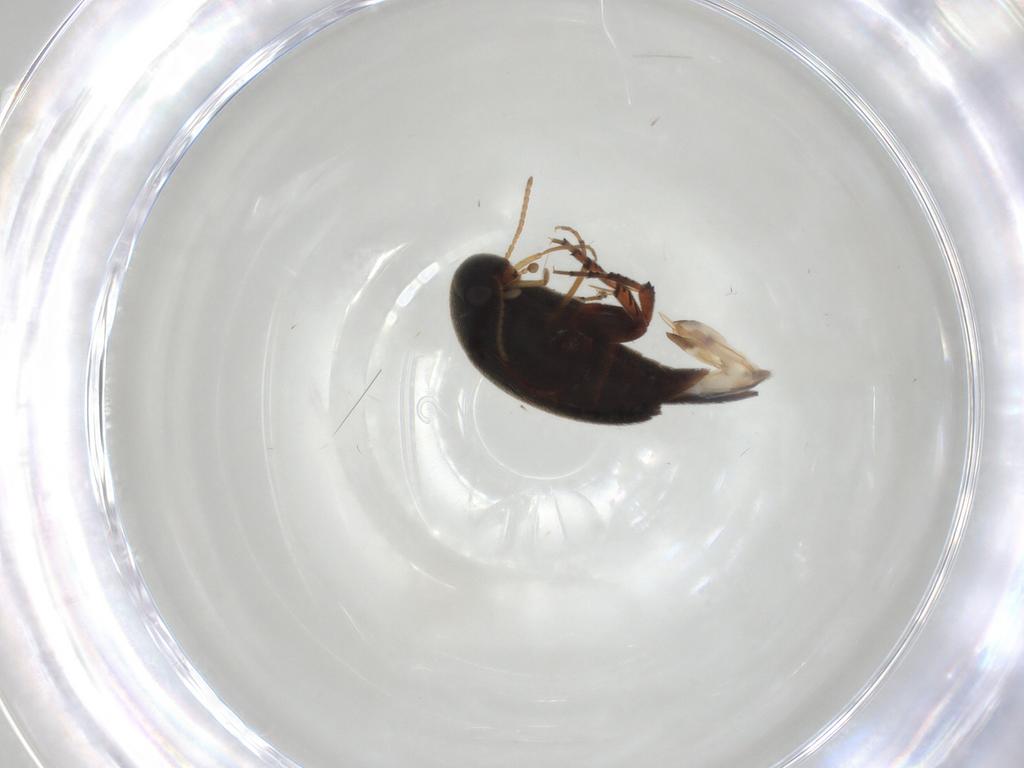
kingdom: Animalia
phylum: Arthropoda
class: Insecta
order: Coleoptera
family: Mordellidae
